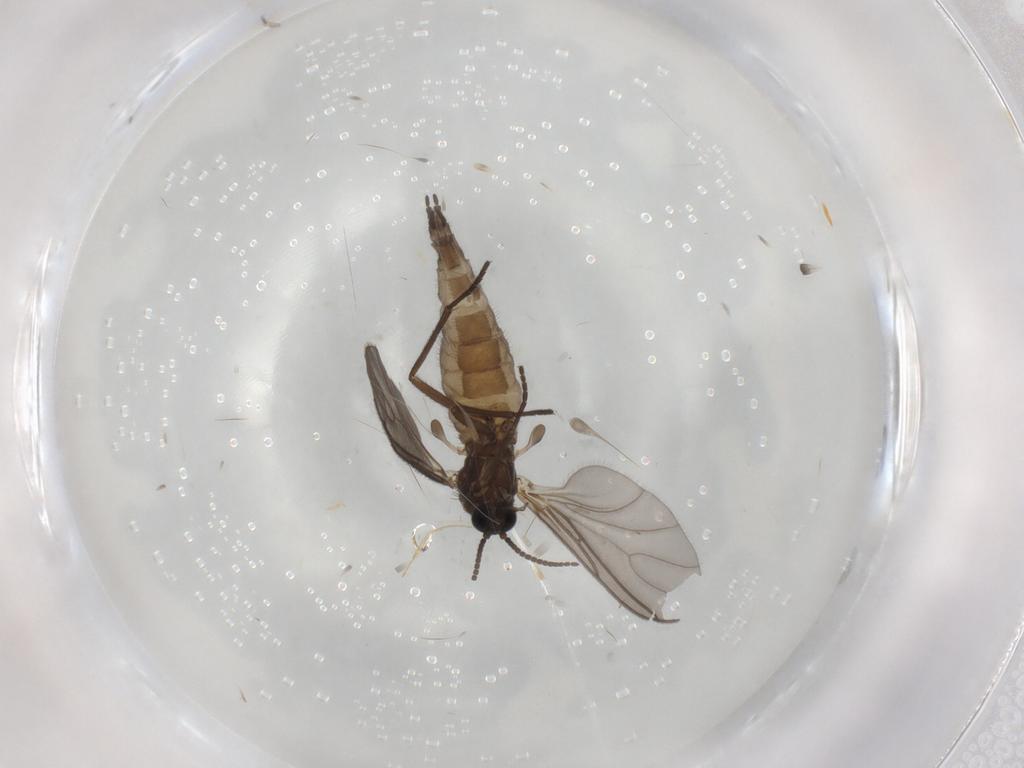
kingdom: Animalia
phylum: Arthropoda
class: Insecta
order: Diptera
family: Sciaridae
